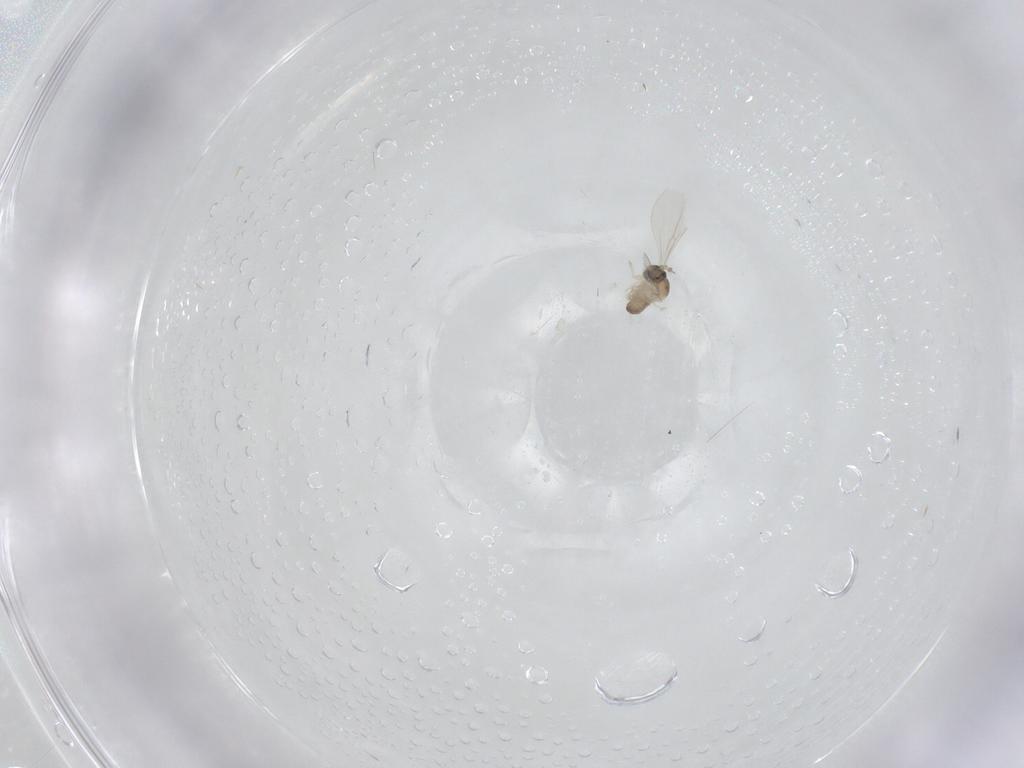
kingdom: Animalia
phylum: Arthropoda
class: Insecta
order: Diptera
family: Cecidomyiidae
